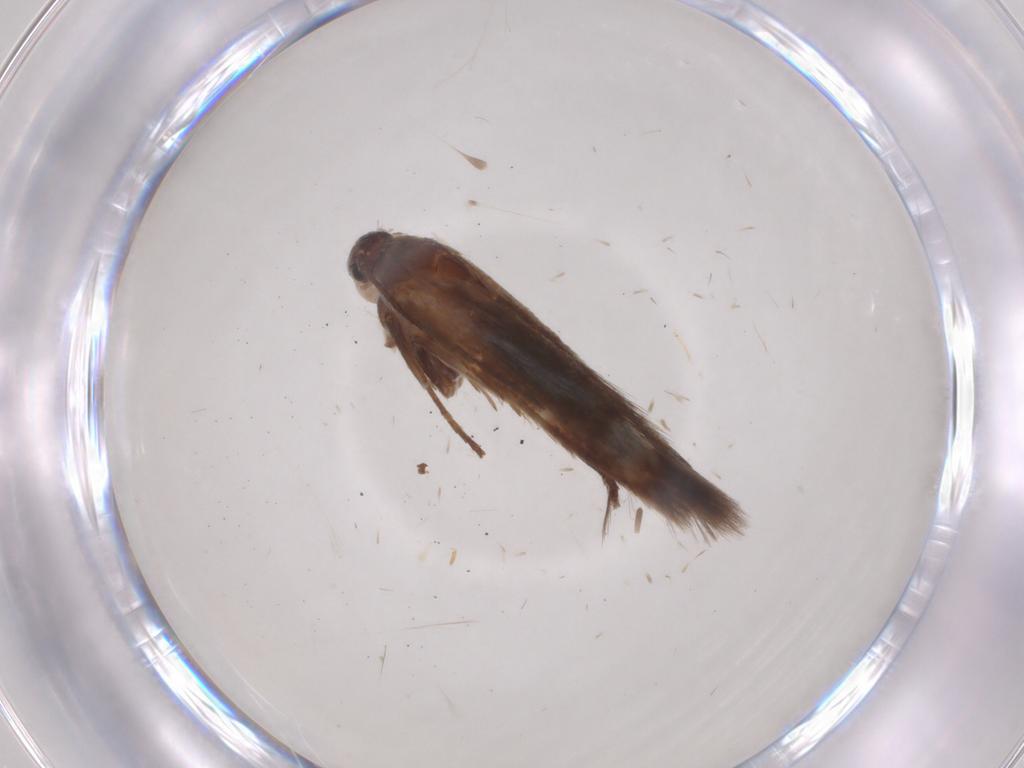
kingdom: Animalia
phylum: Arthropoda
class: Insecta
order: Lepidoptera
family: Scythrididae
